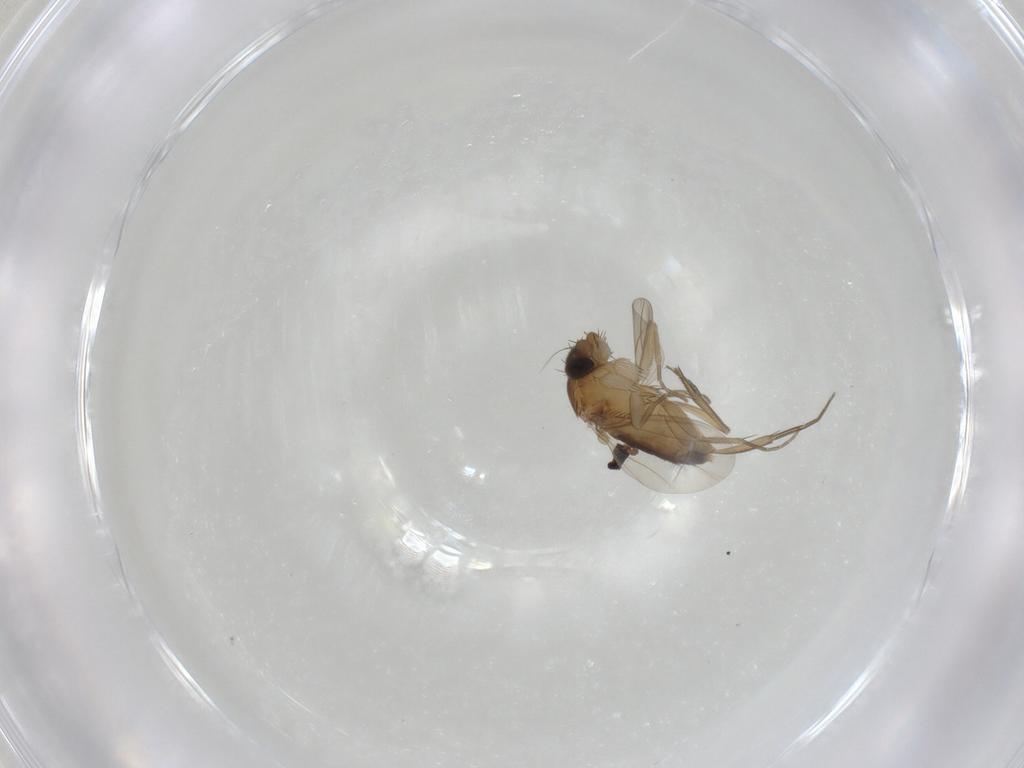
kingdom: Animalia
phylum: Arthropoda
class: Insecta
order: Diptera
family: Phoridae
